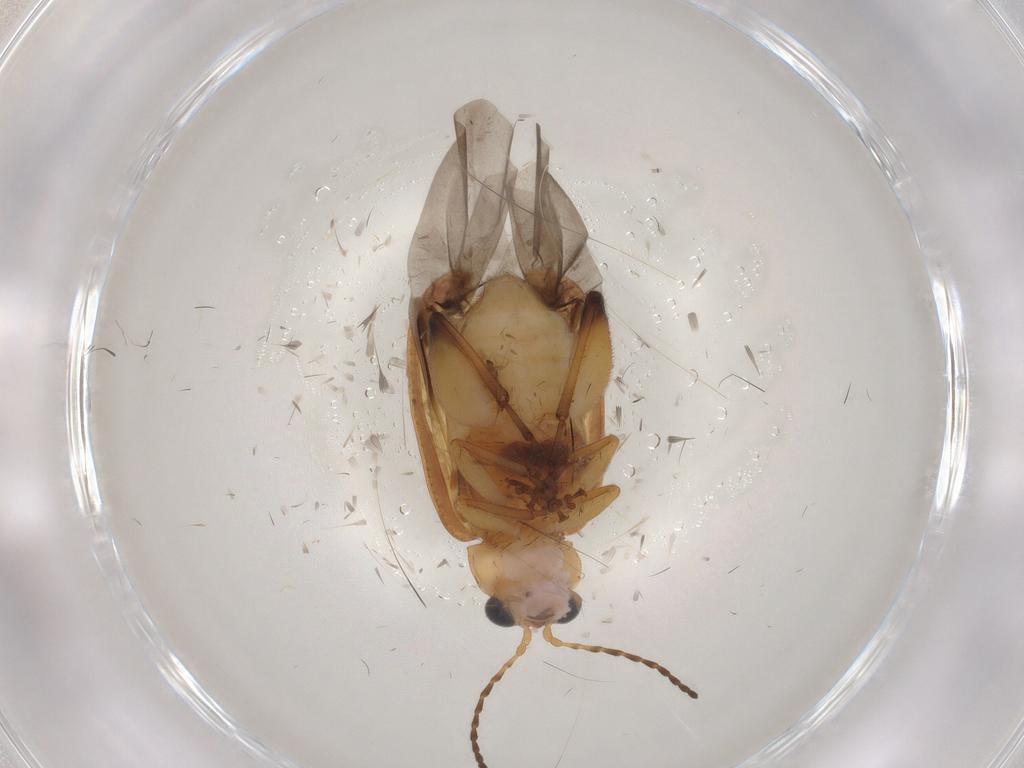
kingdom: Animalia
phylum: Arthropoda
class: Insecta
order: Coleoptera
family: Chrysomelidae
